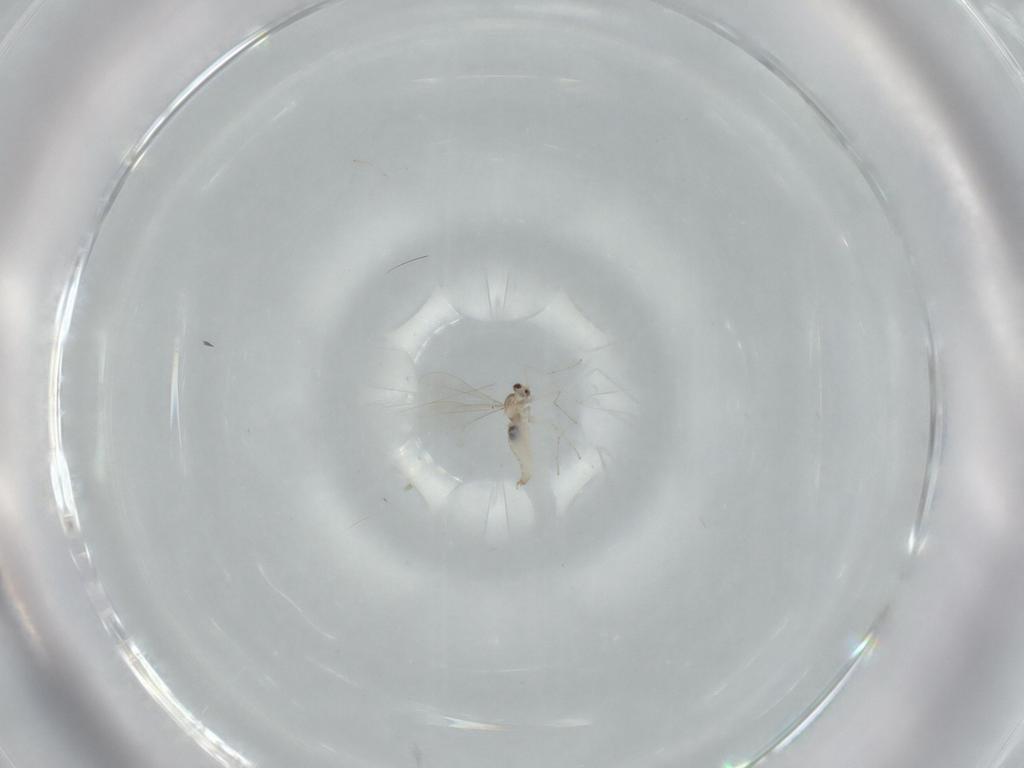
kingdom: Animalia
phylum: Arthropoda
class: Insecta
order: Diptera
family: Cecidomyiidae
